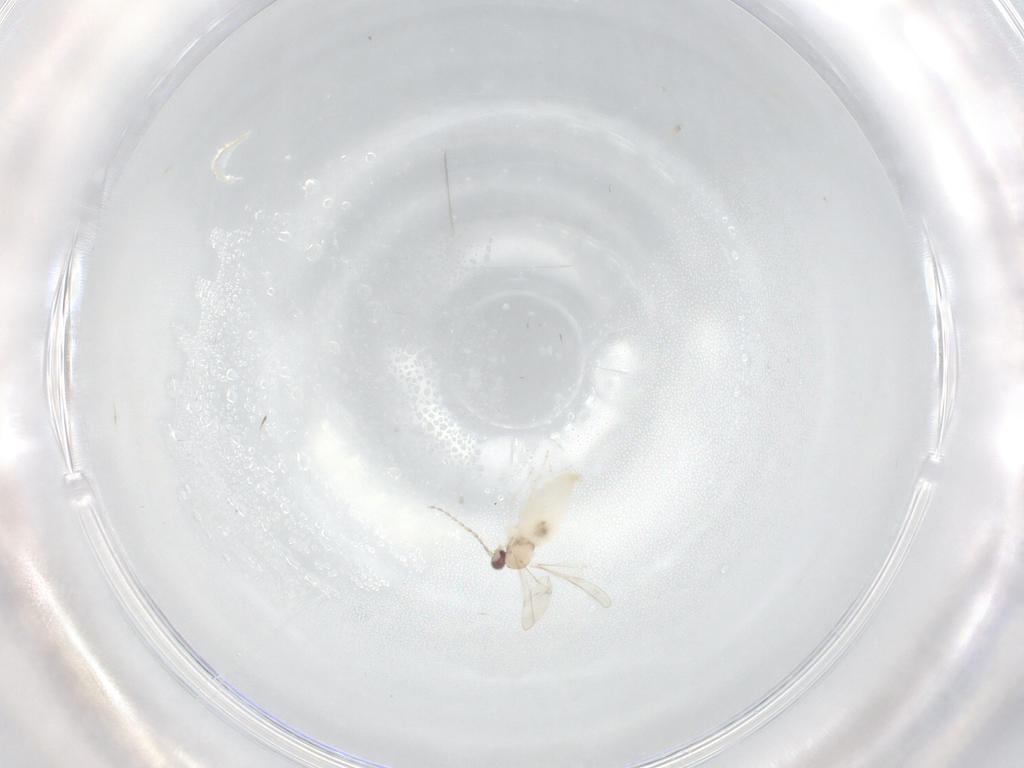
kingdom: Animalia
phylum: Arthropoda
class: Insecta
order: Diptera
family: Cecidomyiidae
